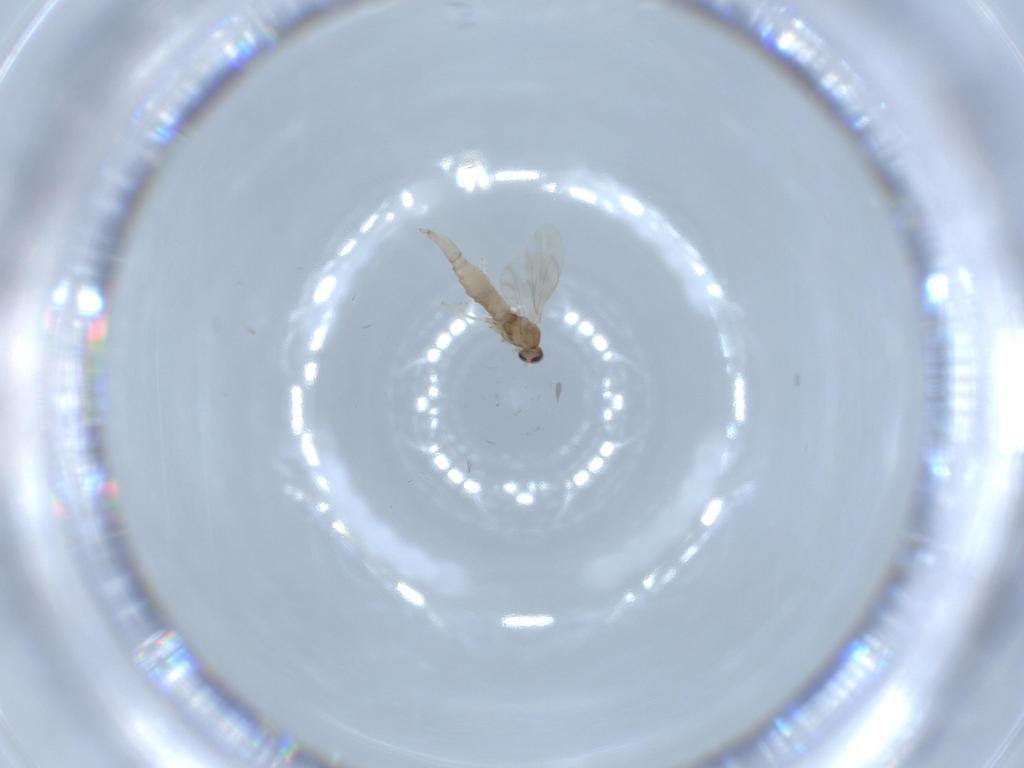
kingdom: Animalia
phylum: Arthropoda
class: Insecta
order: Diptera
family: Cecidomyiidae
